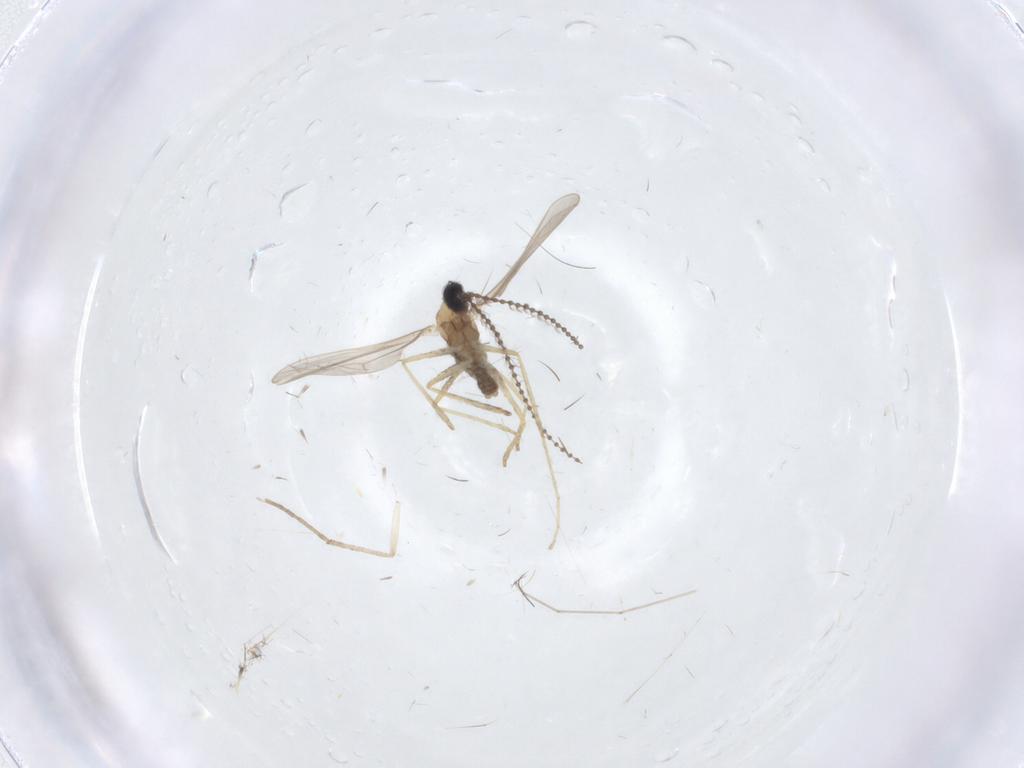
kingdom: Animalia
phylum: Arthropoda
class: Insecta
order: Diptera
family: Cecidomyiidae
